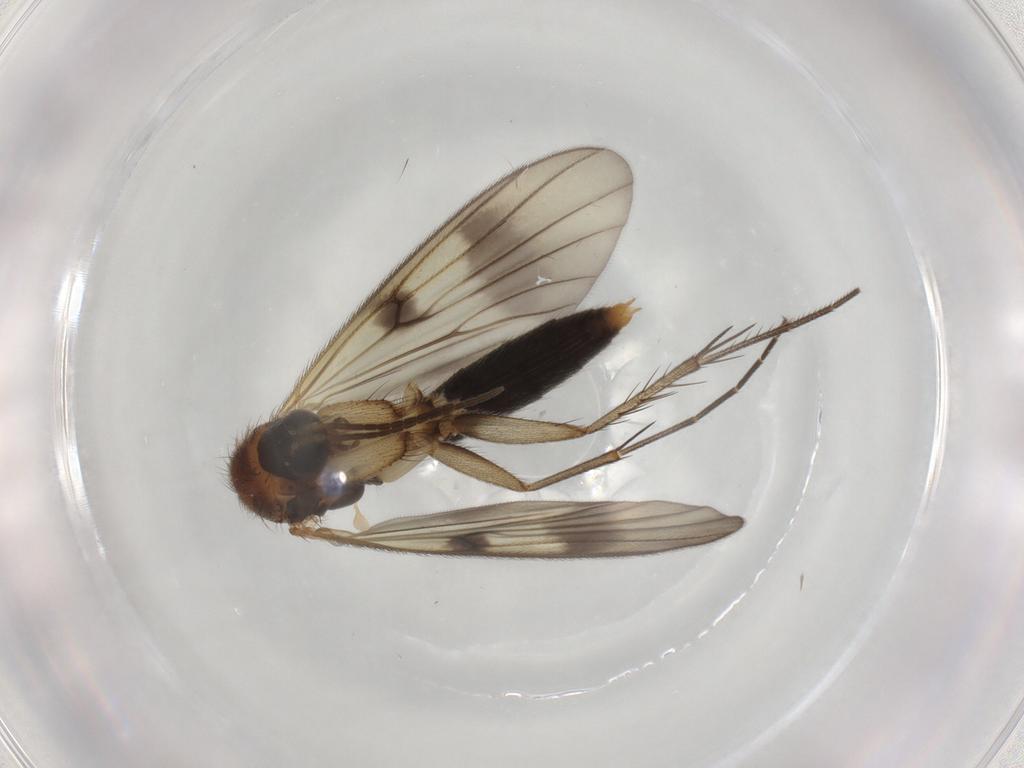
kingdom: Animalia
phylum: Arthropoda
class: Insecta
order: Diptera
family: Mycetophilidae
